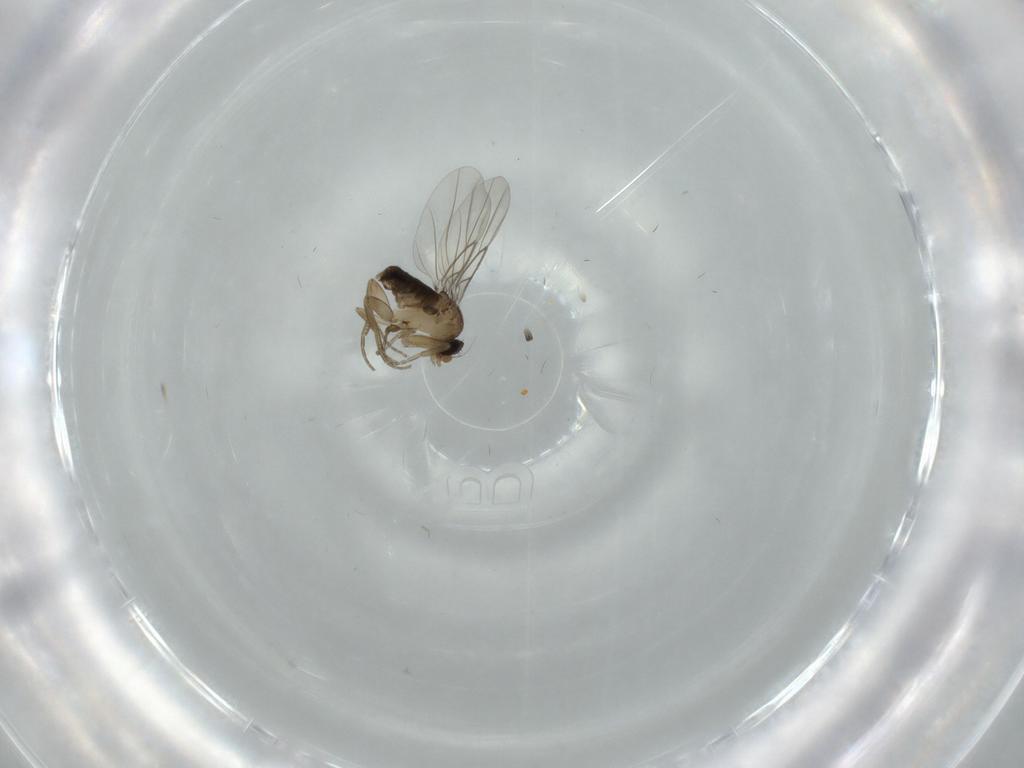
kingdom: Animalia
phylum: Arthropoda
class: Insecta
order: Diptera
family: Phoridae
